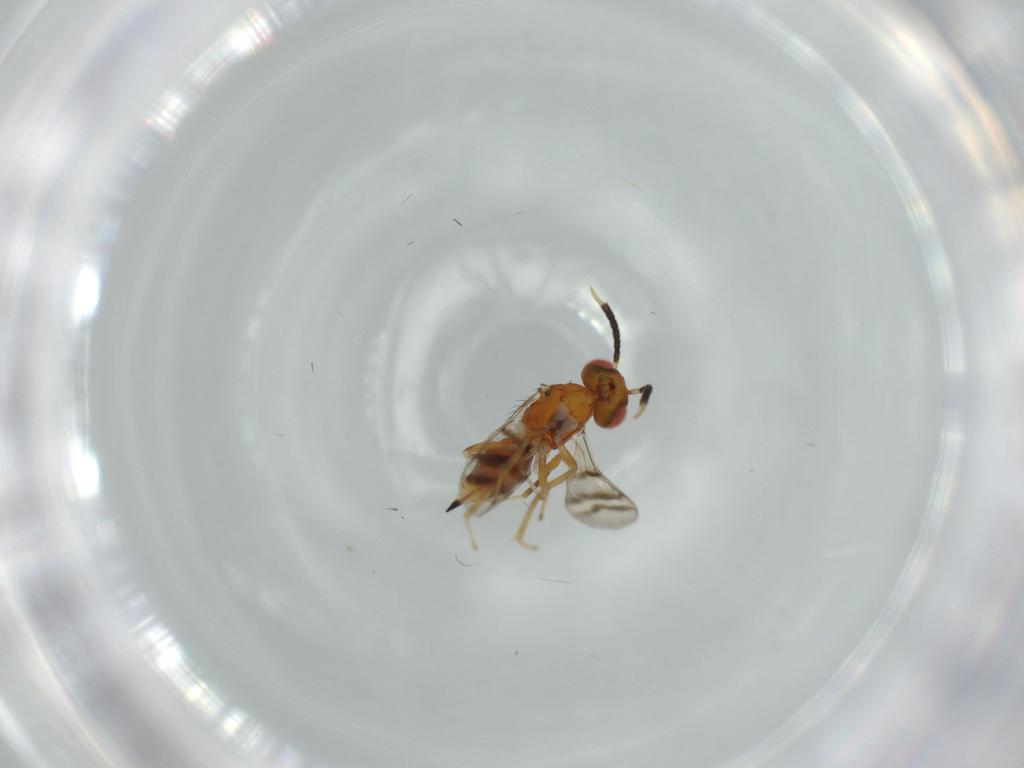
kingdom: Animalia
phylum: Arthropoda
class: Insecta
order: Hymenoptera
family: Diparidae
